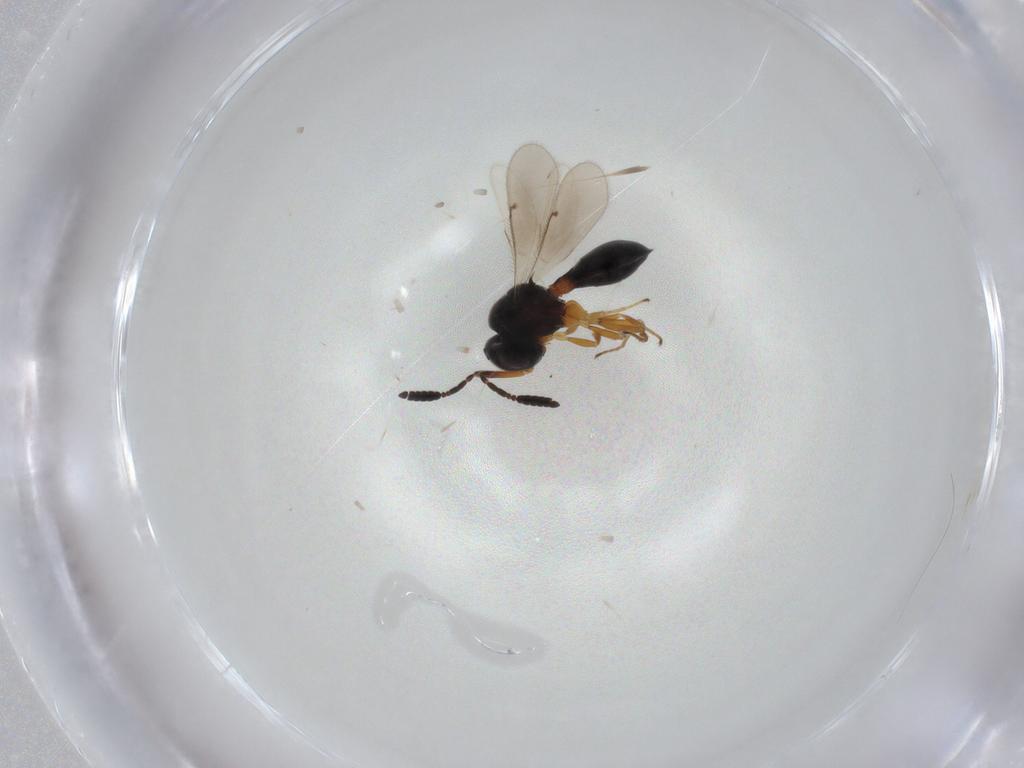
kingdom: Animalia
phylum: Arthropoda
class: Insecta
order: Hymenoptera
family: Scelionidae
